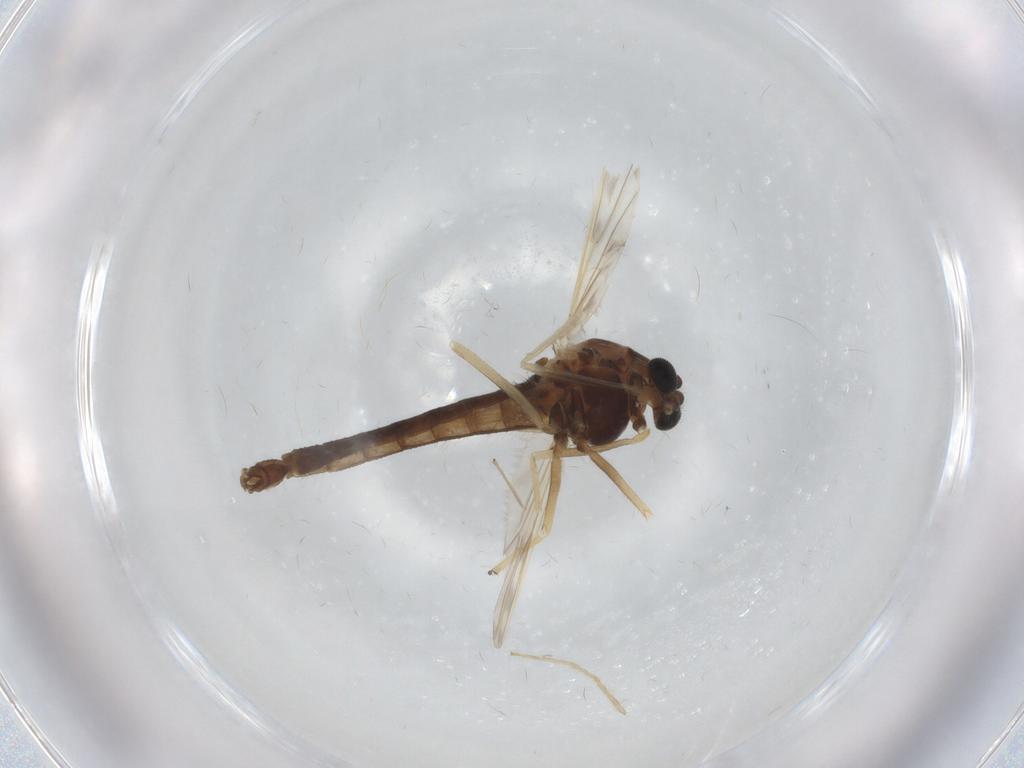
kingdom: Animalia
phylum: Arthropoda
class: Insecta
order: Diptera
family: Chironomidae
